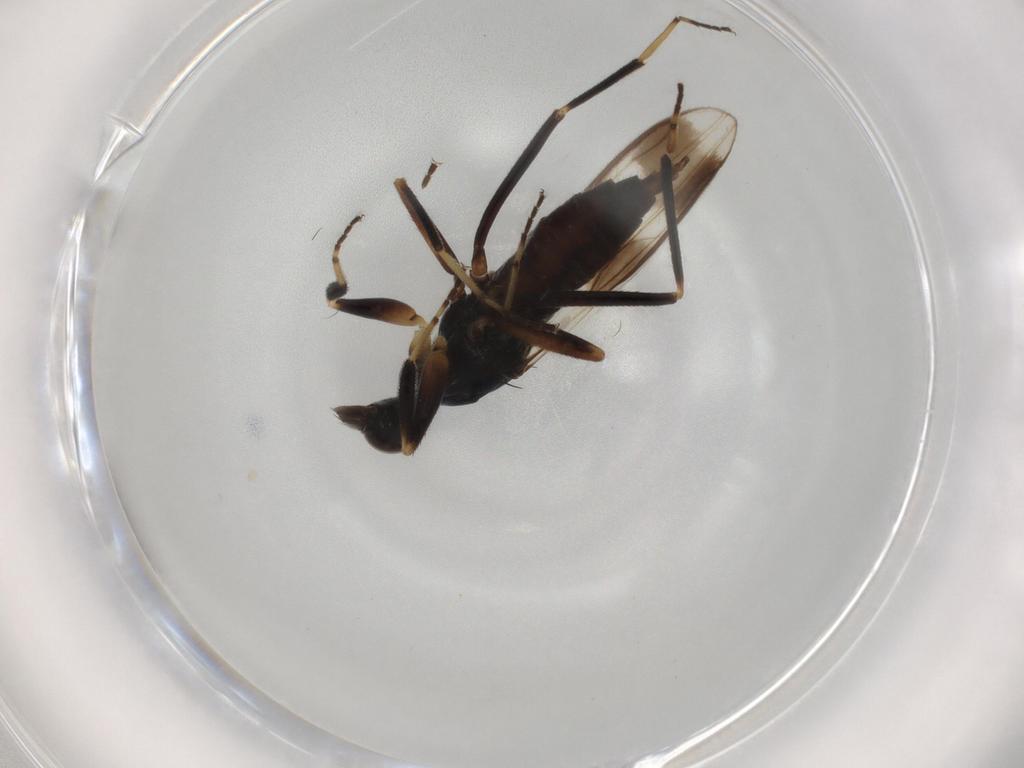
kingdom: Animalia
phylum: Arthropoda
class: Insecta
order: Diptera
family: Hybotidae
